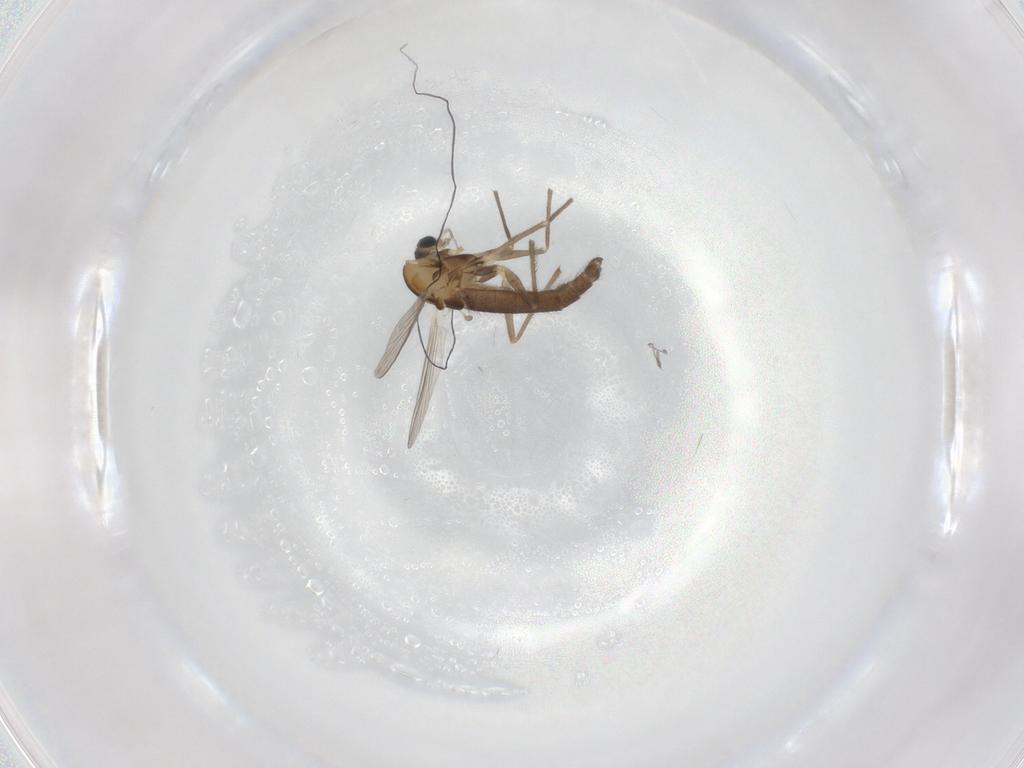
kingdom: Animalia
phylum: Arthropoda
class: Insecta
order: Diptera
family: Chironomidae
